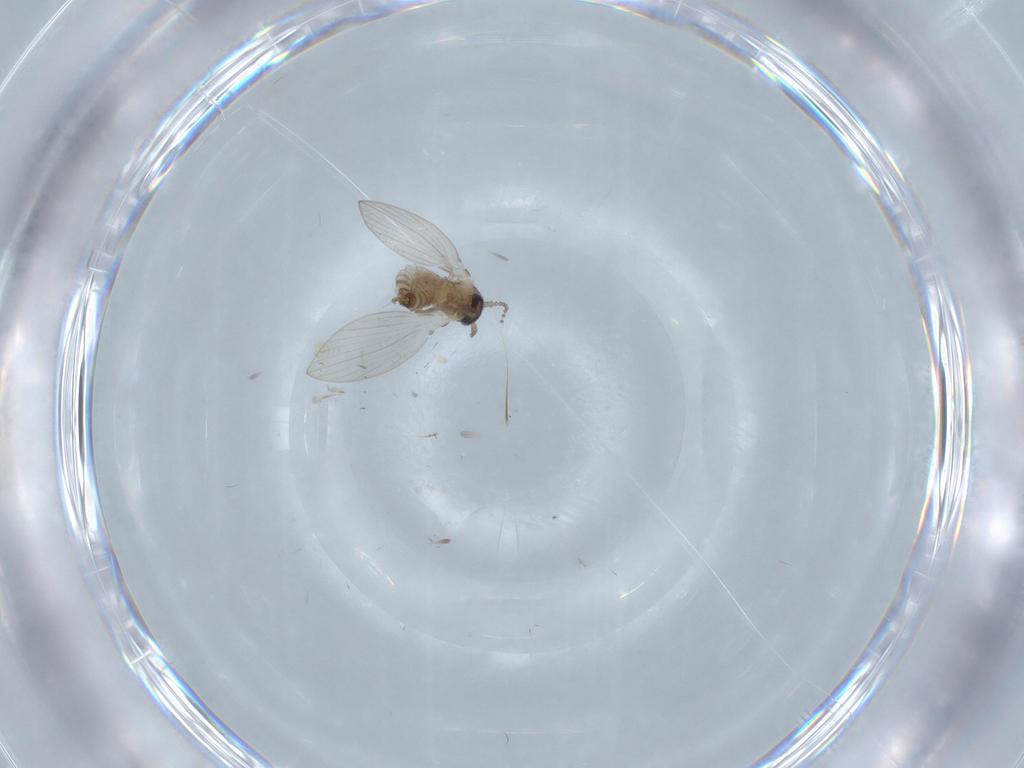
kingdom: Animalia
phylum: Arthropoda
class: Insecta
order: Diptera
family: Psychodidae
